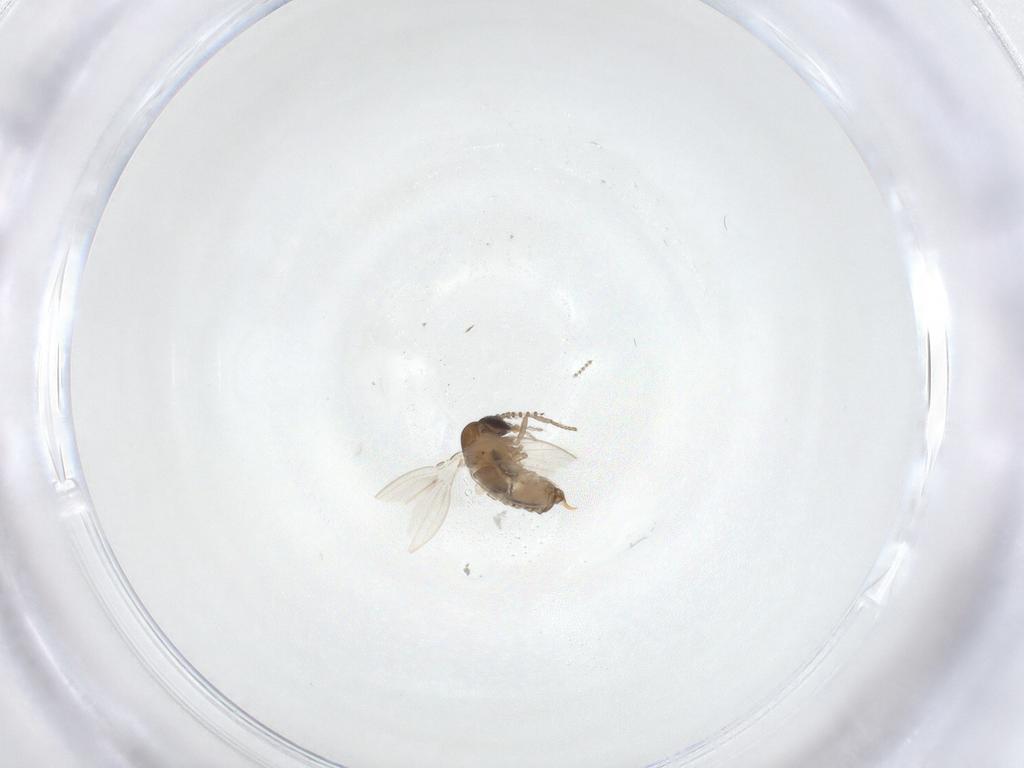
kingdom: Animalia
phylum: Arthropoda
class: Insecta
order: Diptera
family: Psychodidae
